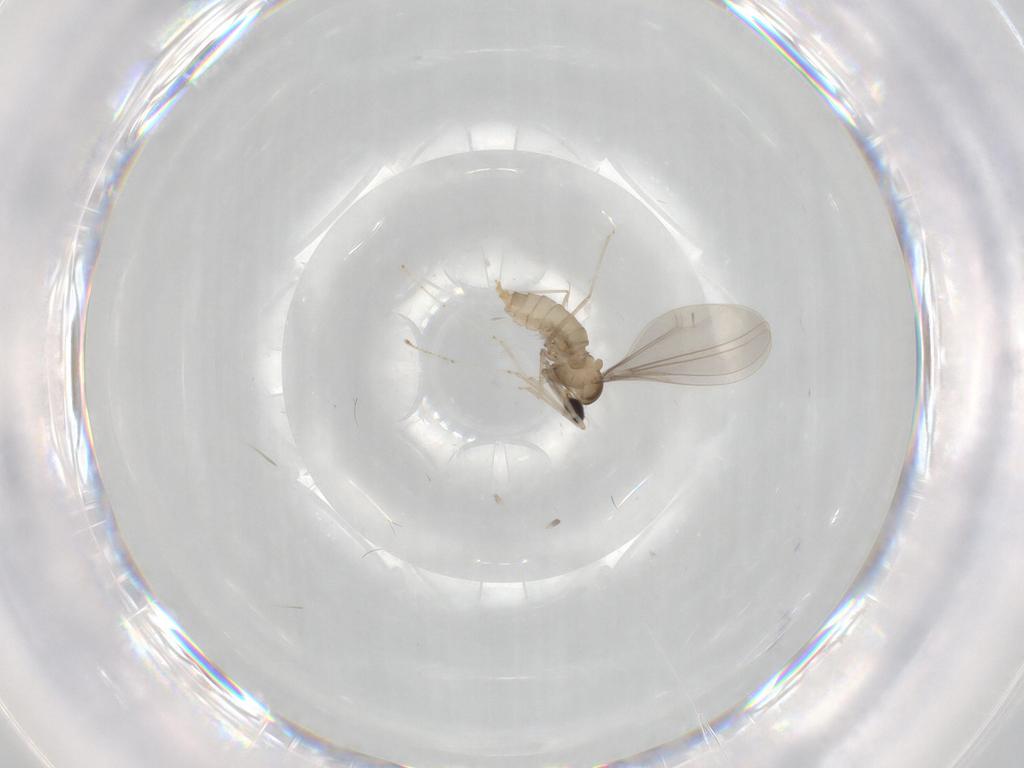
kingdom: Animalia
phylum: Arthropoda
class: Insecta
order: Diptera
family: Cecidomyiidae
